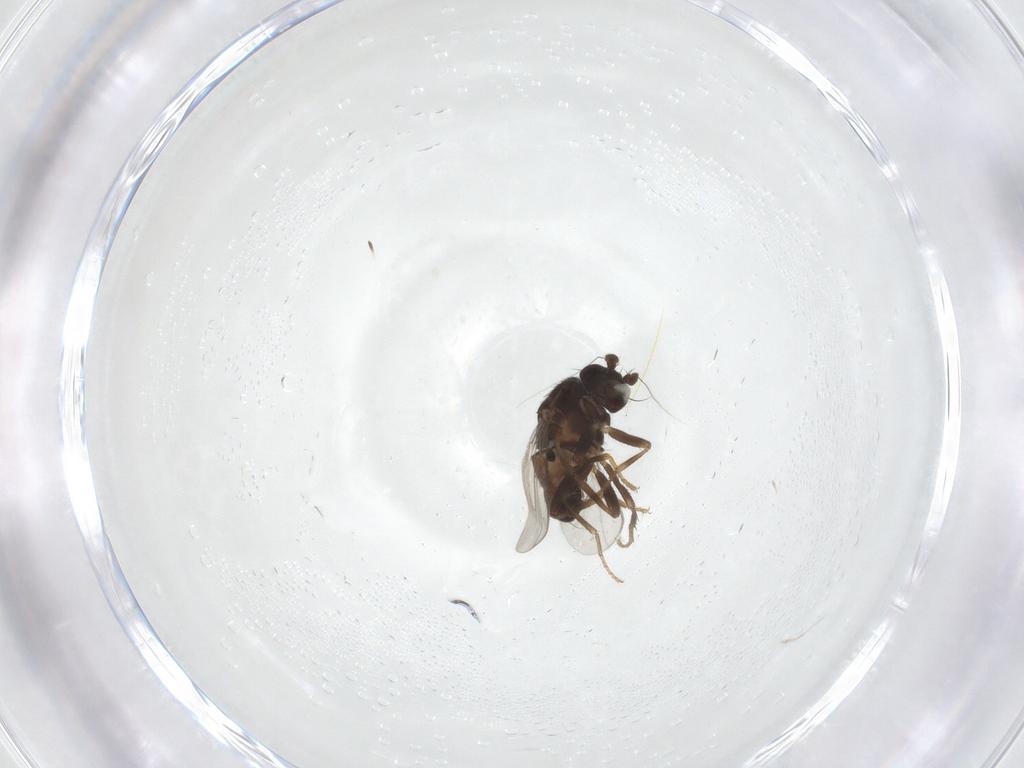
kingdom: Animalia
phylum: Arthropoda
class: Insecta
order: Diptera
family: Sphaeroceridae
